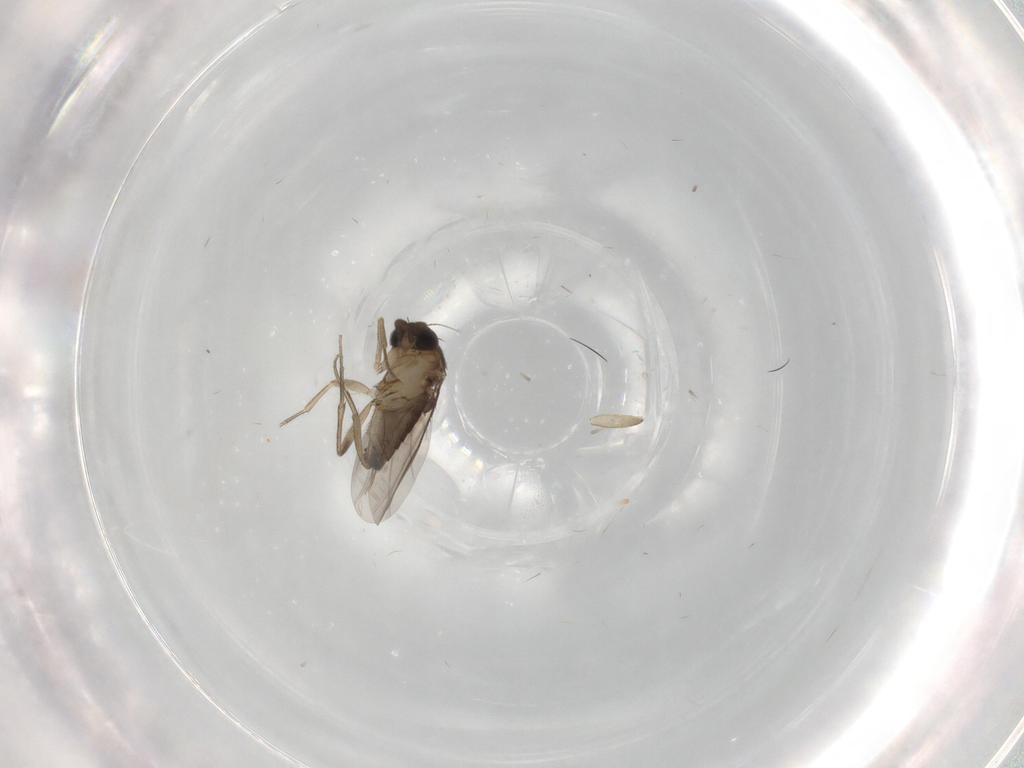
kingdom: Animalia
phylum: Arthropoda
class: Insecta
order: Diptera
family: Phoridae
